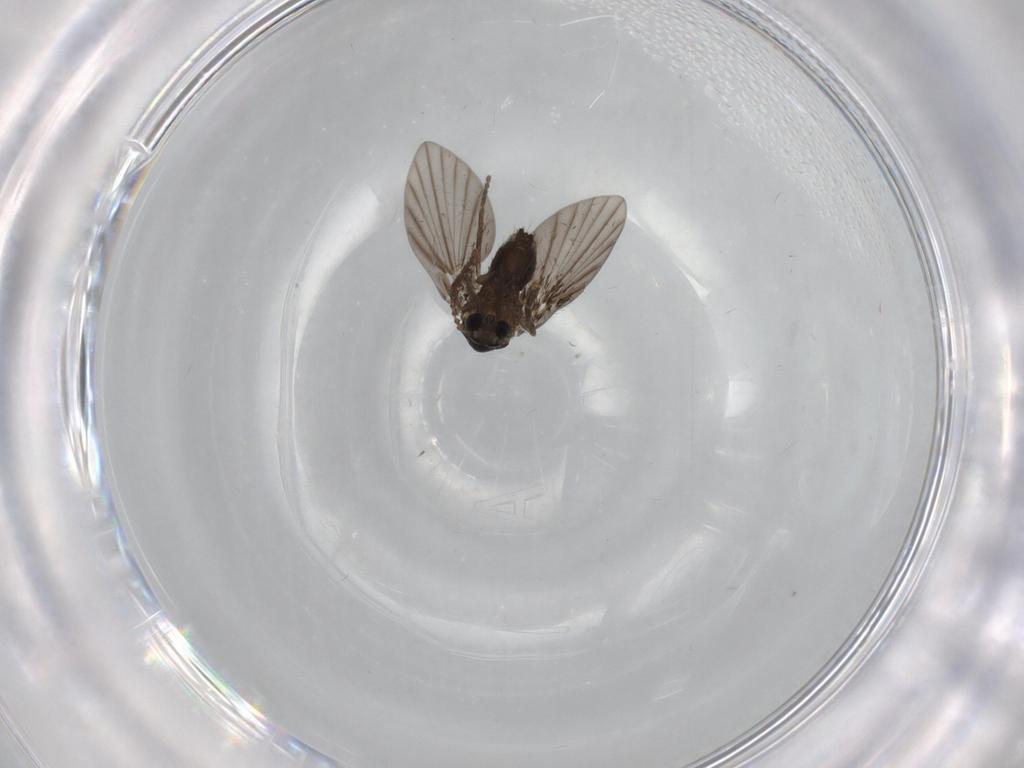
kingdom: Animalia
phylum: Arthropoda
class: Insecta
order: Diptera
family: Psychodidae
